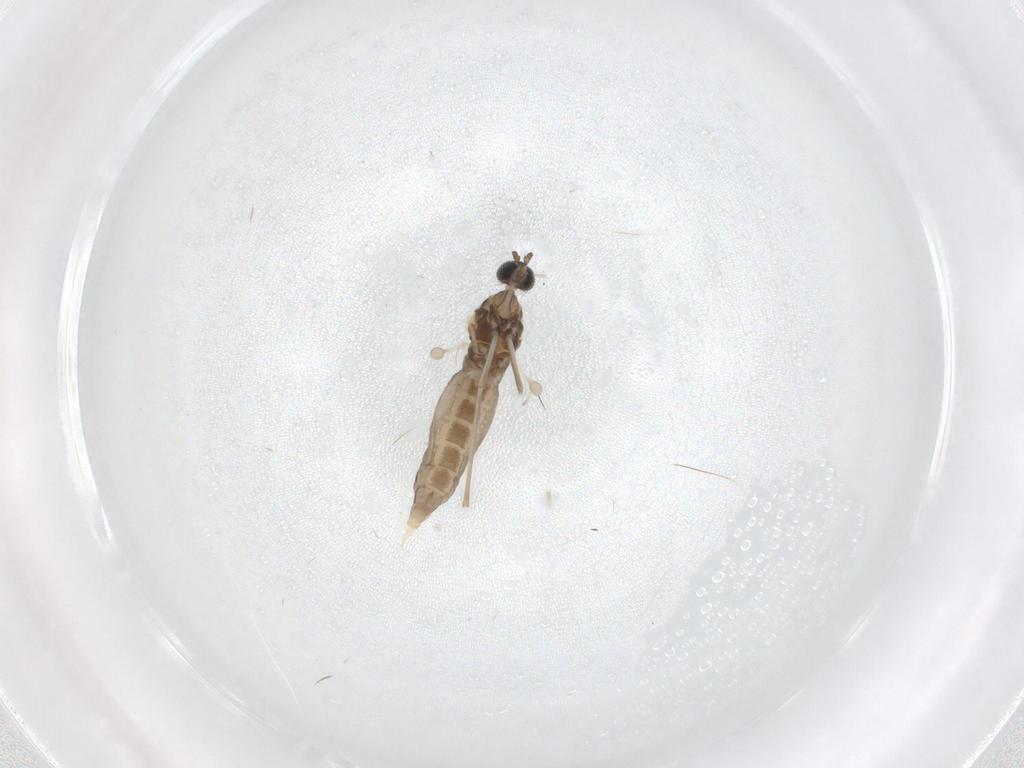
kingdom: Animalia
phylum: Arthropoda
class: Insecta
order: Diptera
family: Cecidomyiidae
